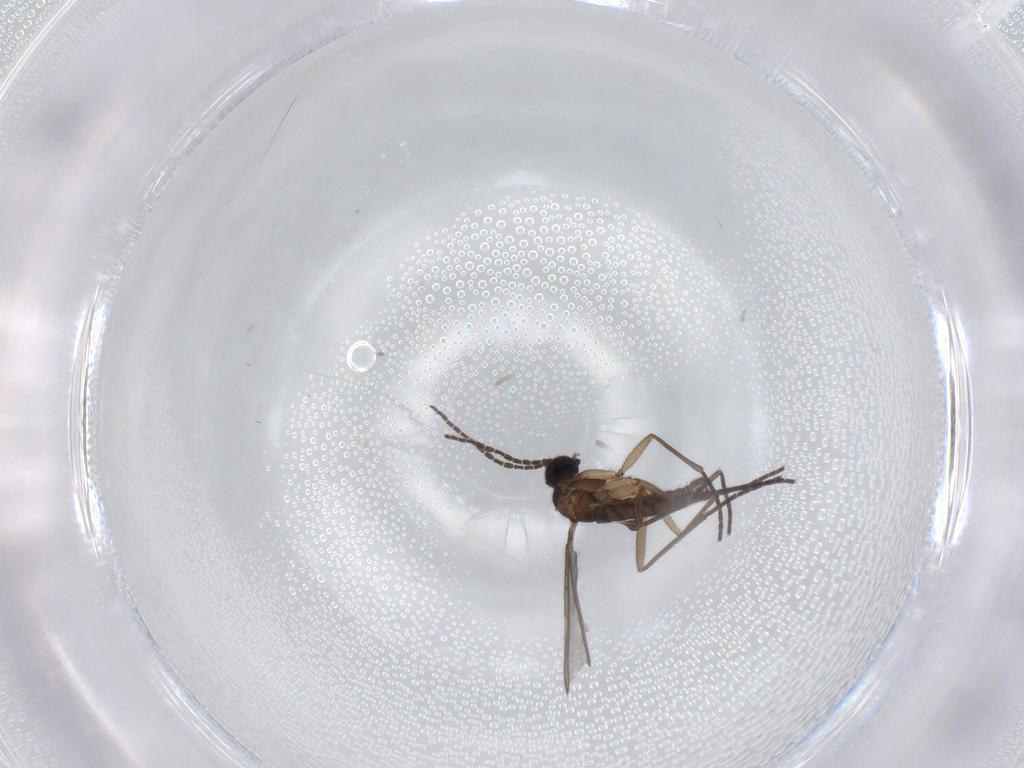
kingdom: Animalia
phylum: Arthropoda
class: Insecta
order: Diptera
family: Sciaridae
